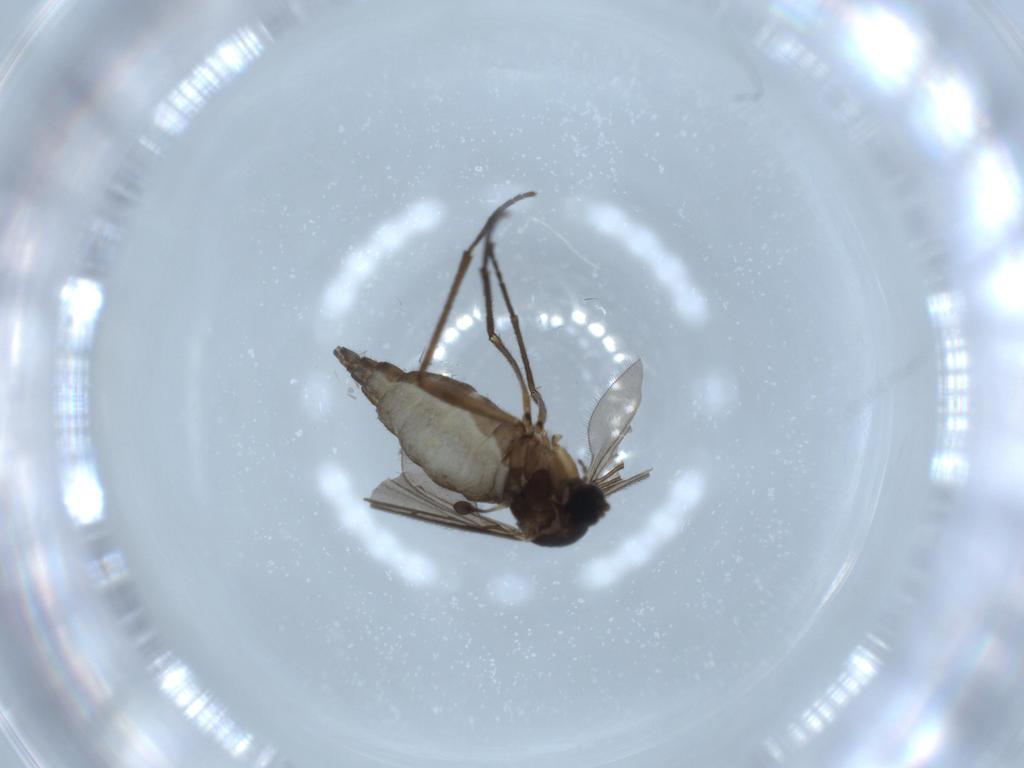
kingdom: Animalia
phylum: Arthropoda
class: Insecta
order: Diptera
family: Sciaridae
